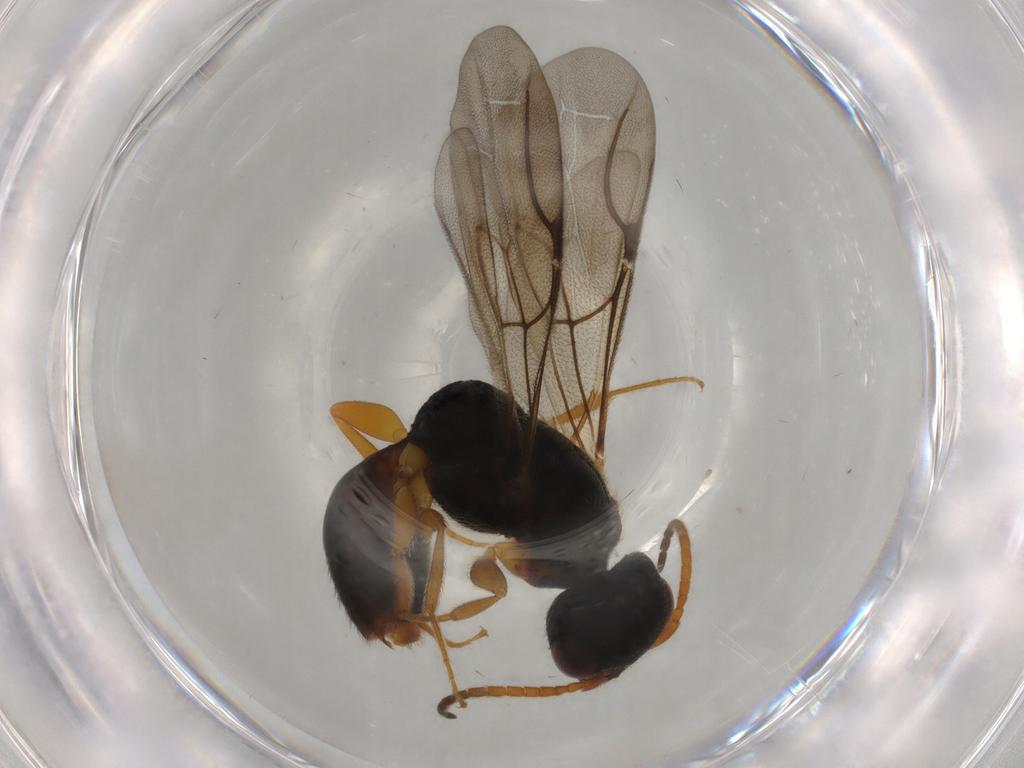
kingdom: Animalia
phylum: Arthropoda
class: Insecta
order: Hymenoptera
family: Bethylidae
